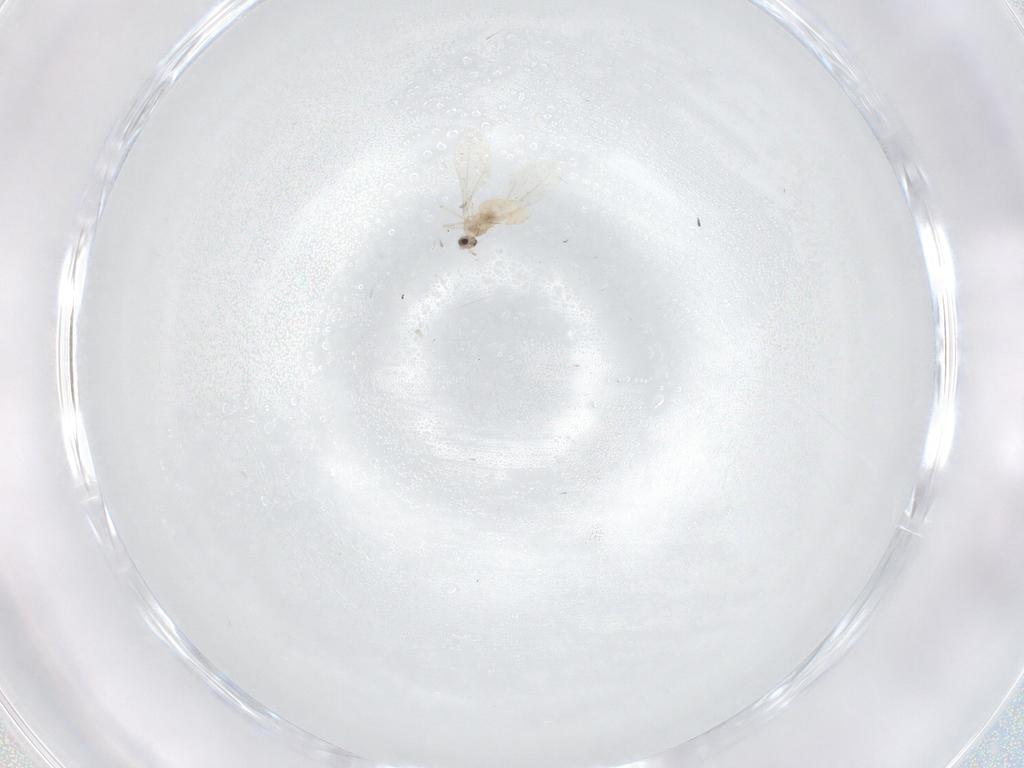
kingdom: Animalia
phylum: Arthropoda
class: Insecta
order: Diptera
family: Cecidomyiidae
